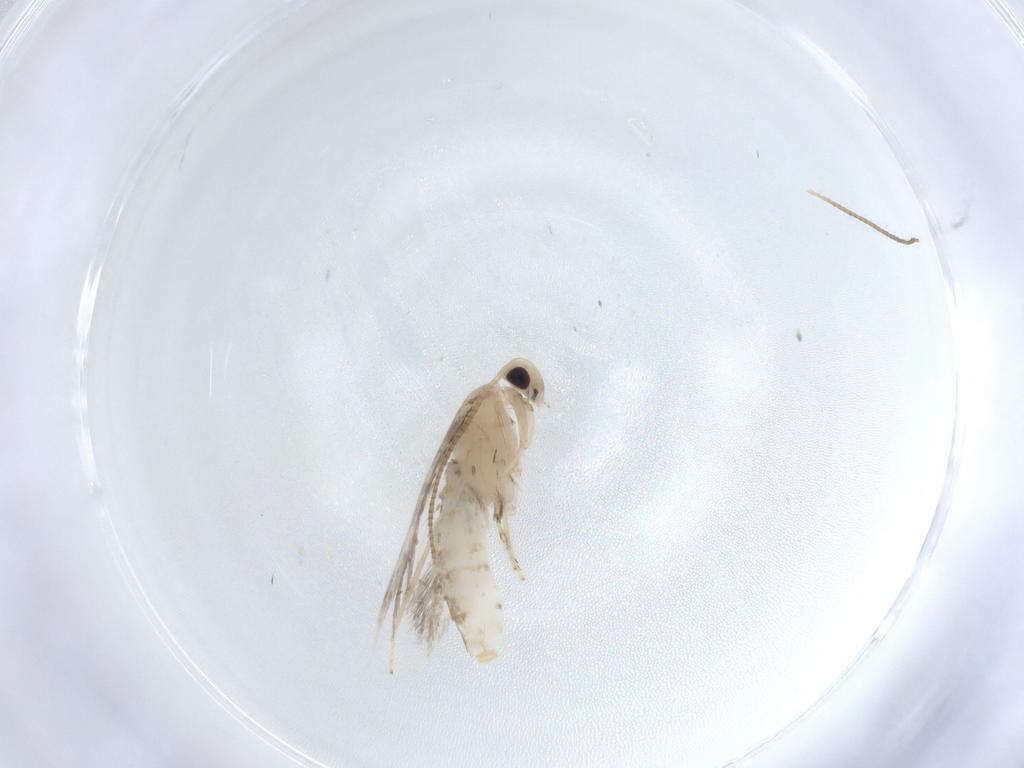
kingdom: Animalia
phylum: Arthropoda
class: Insecta
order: Lepidoptera
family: Gracillariidae
